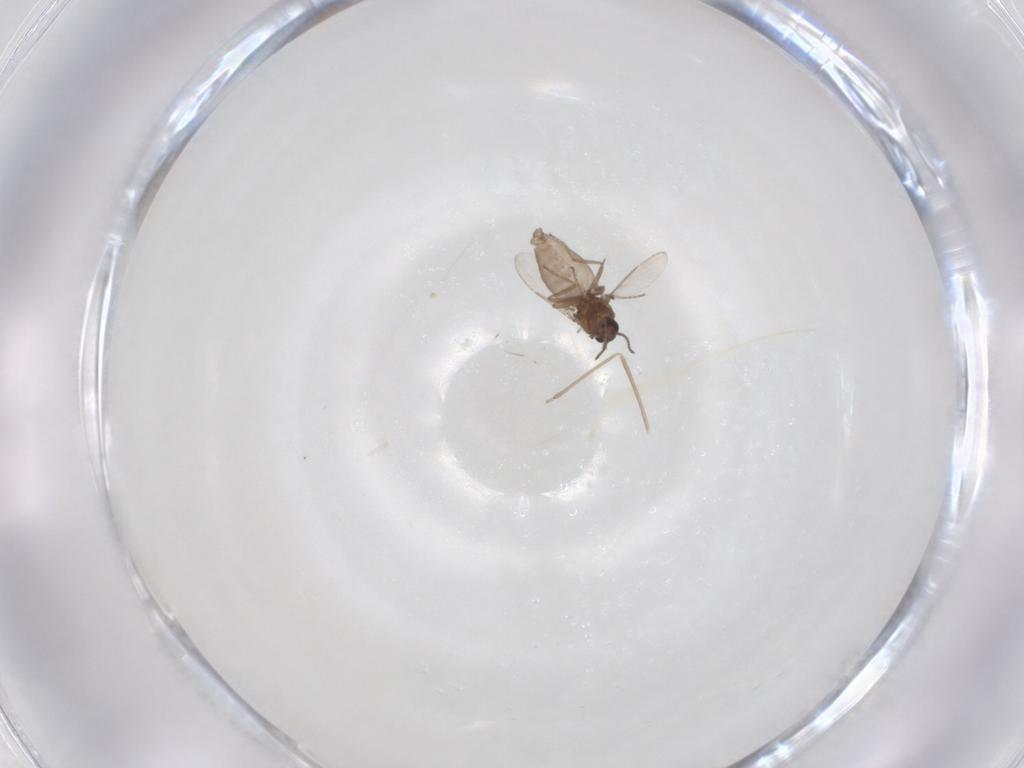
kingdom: Animalia
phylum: Arthropoda
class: Insecta
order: Diptera
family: Ceratopogonidae
